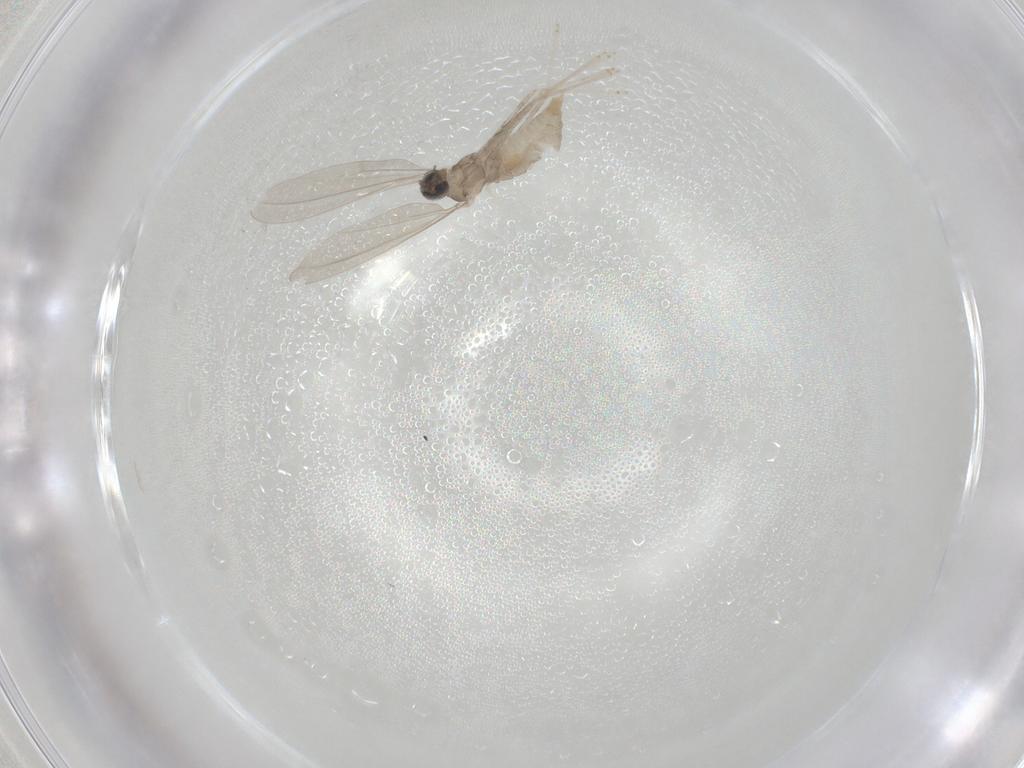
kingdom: Animalia
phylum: Arthropoda
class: Insecta
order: Diptera
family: Cecidomyiidae
